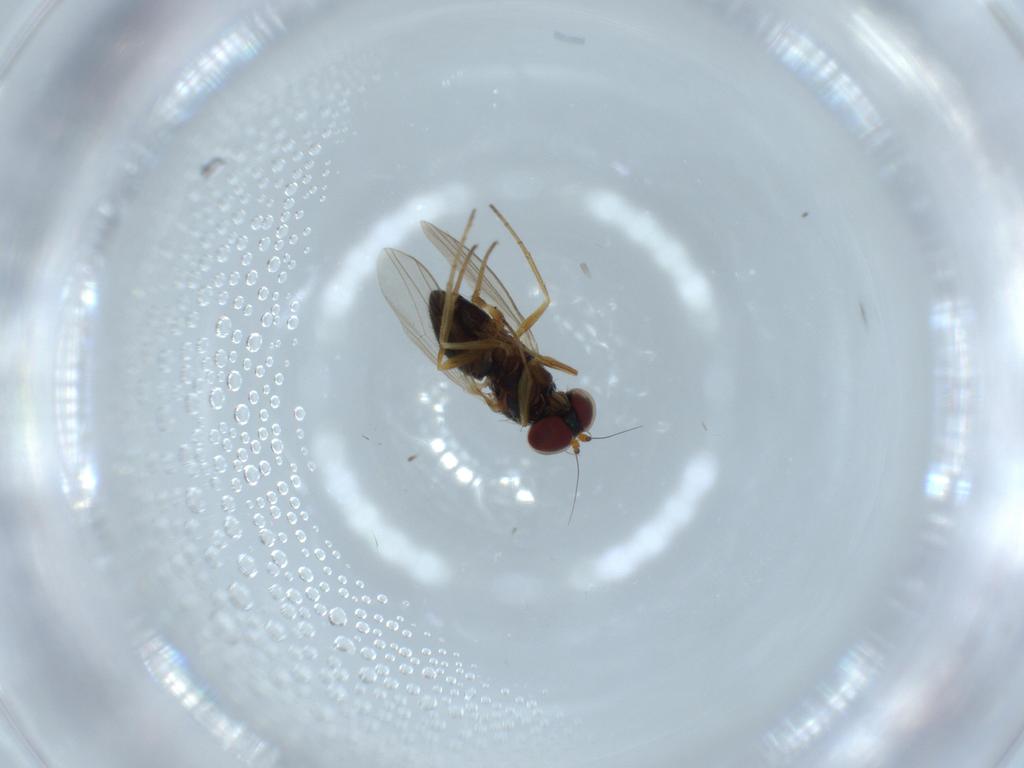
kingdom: Animalia
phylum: Arthropoda
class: Insecta
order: Diptera
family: Dolichopodidae
